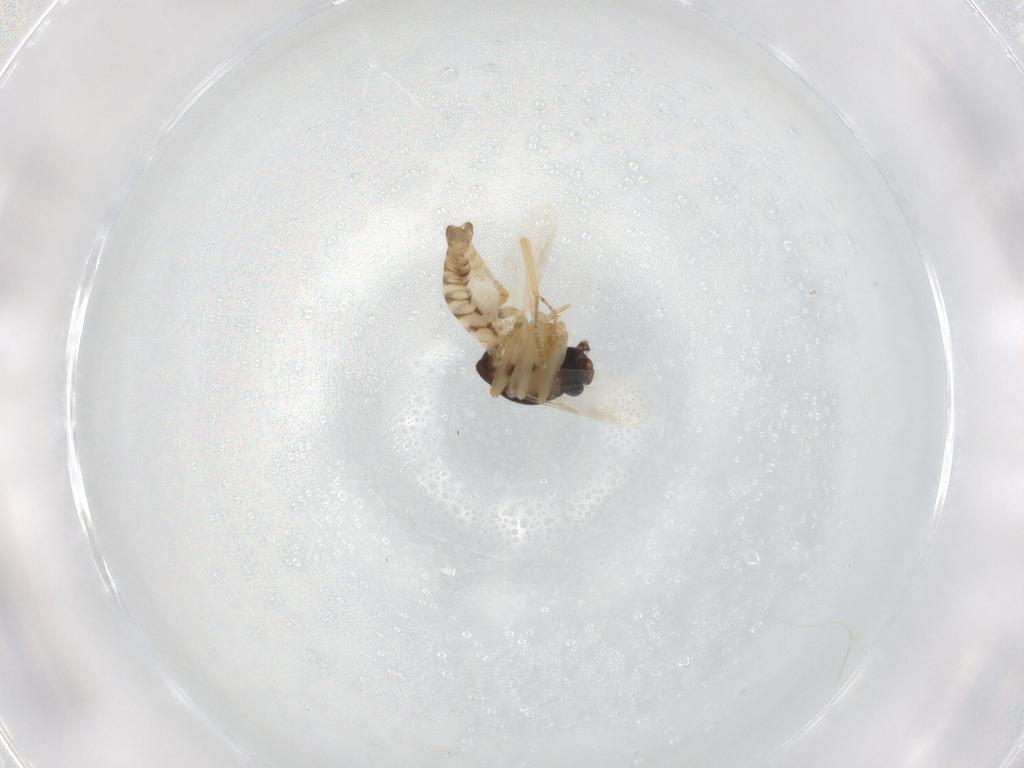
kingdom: Animalia
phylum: Arthropoda
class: Insecta
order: Diptera
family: Ceratopogonidae
